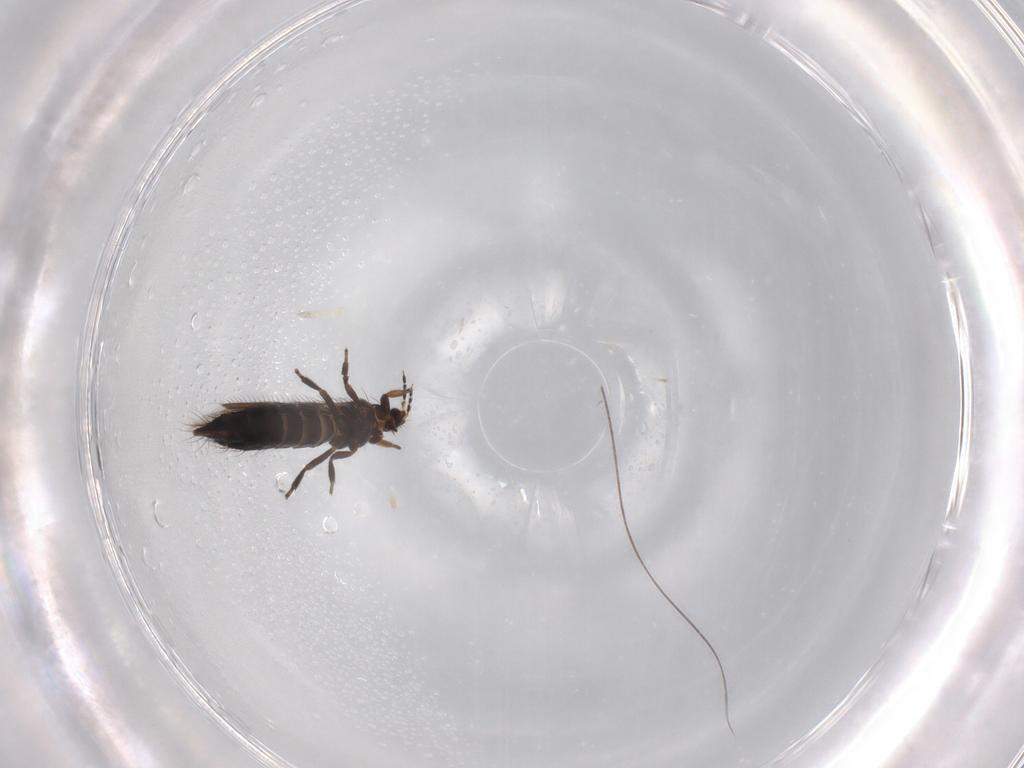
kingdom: Animalia
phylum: Arthropoda
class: Insecta
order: Thysanoptera
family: Thripidae
